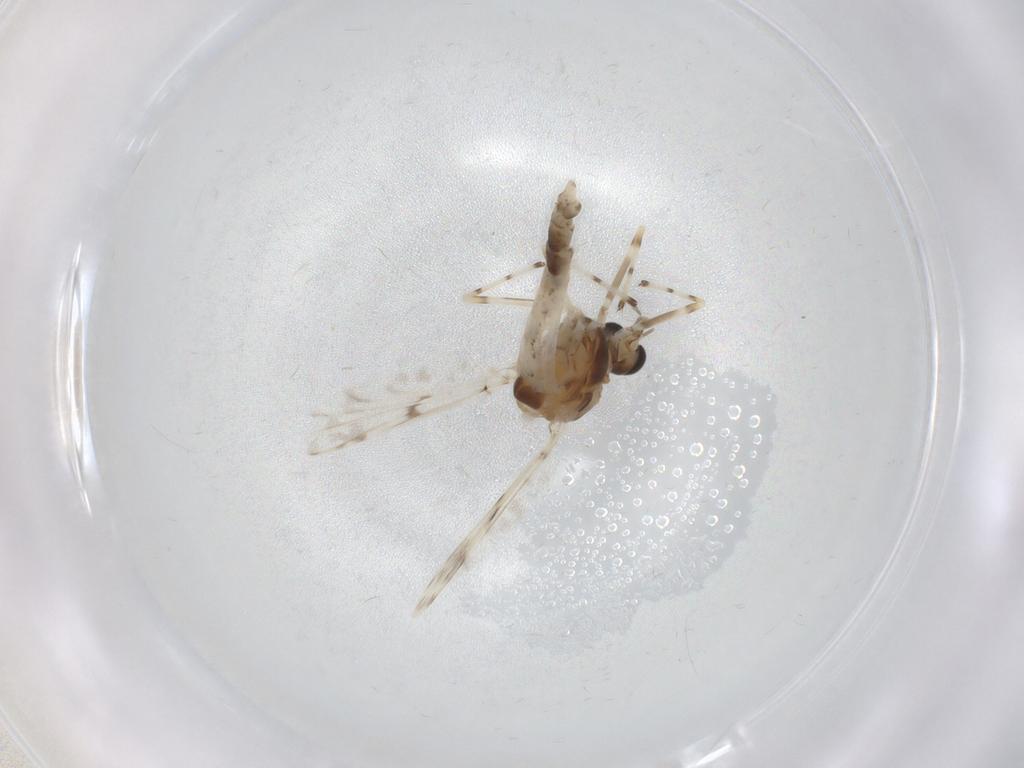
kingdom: Animalia
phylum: Arthropoda
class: Insecta
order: Diptera
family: Chironomidae
